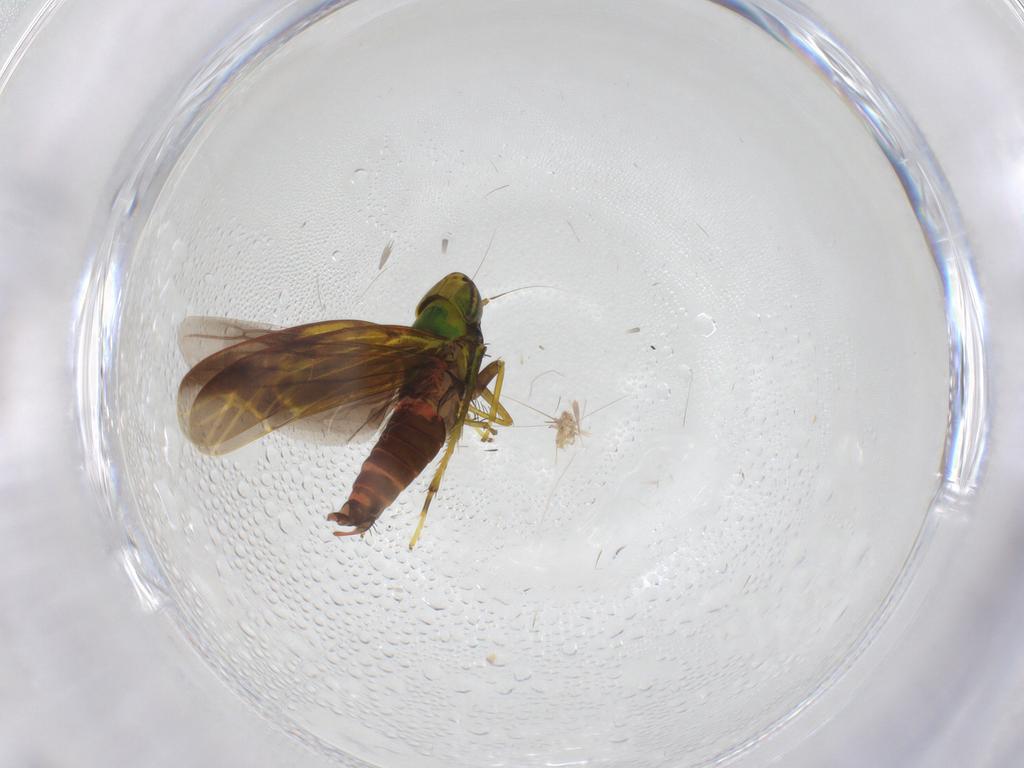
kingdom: Animalia
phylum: Arthropoda
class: Insecta
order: Hemiptera
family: Cicadellidae
